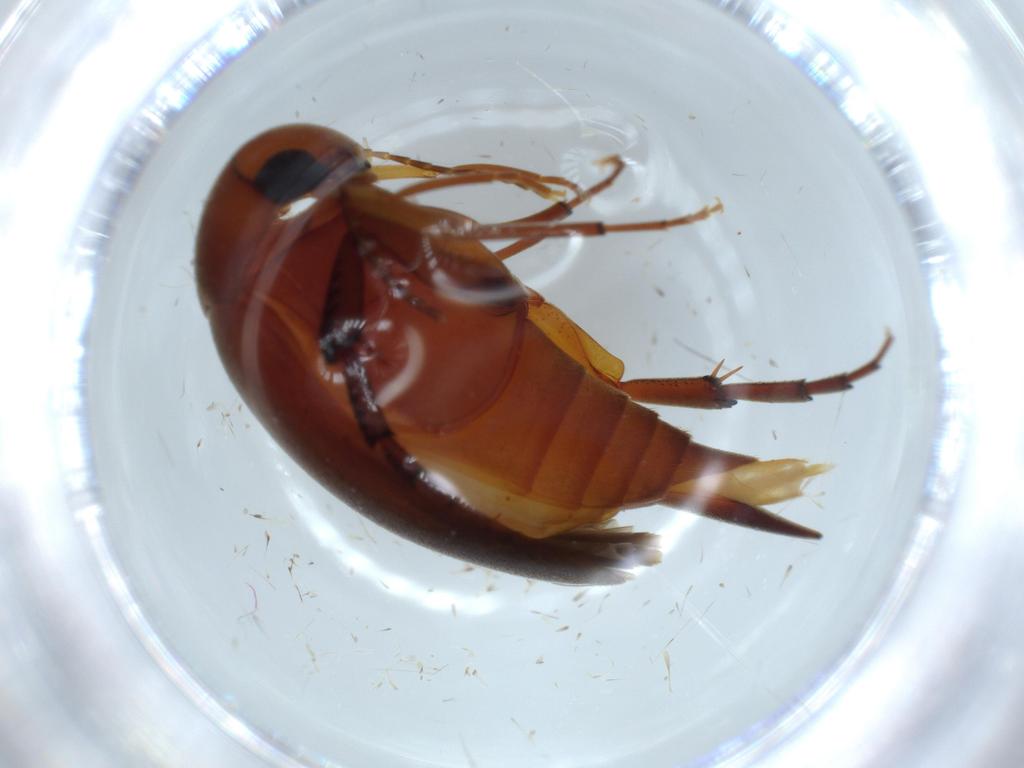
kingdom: Animalia
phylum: Arthropoda
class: Insecta
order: Coleoptera
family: Mordellidae
